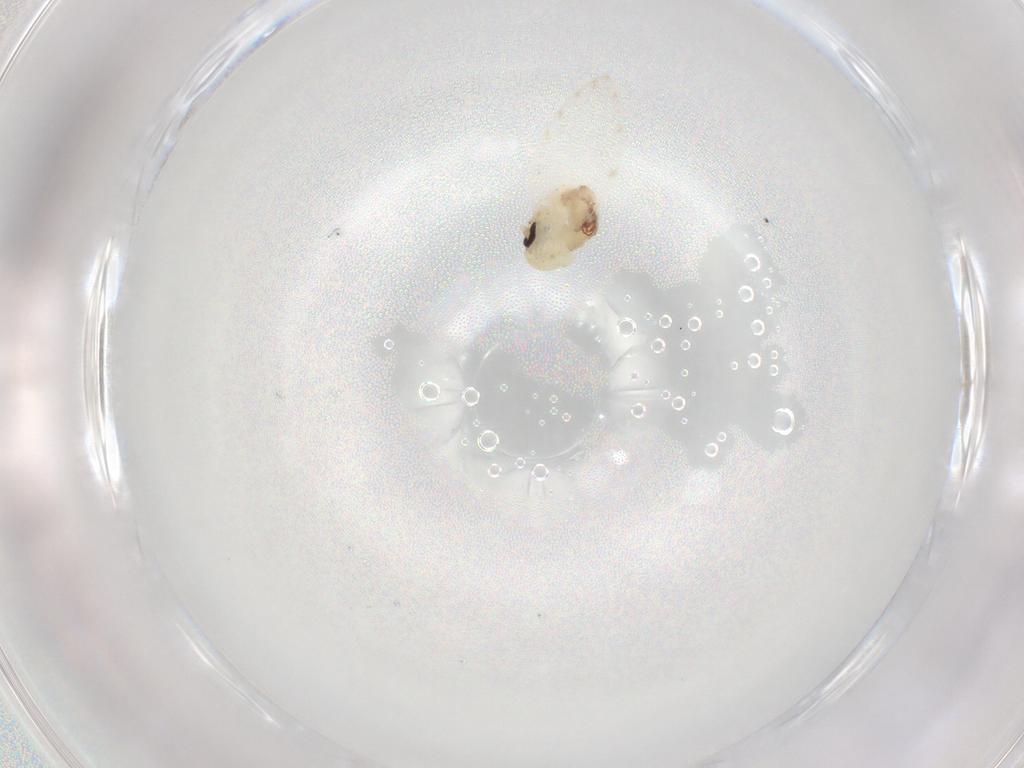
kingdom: Animalia
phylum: Arthropoda
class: Insecta
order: Diptera
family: Psychodidae
